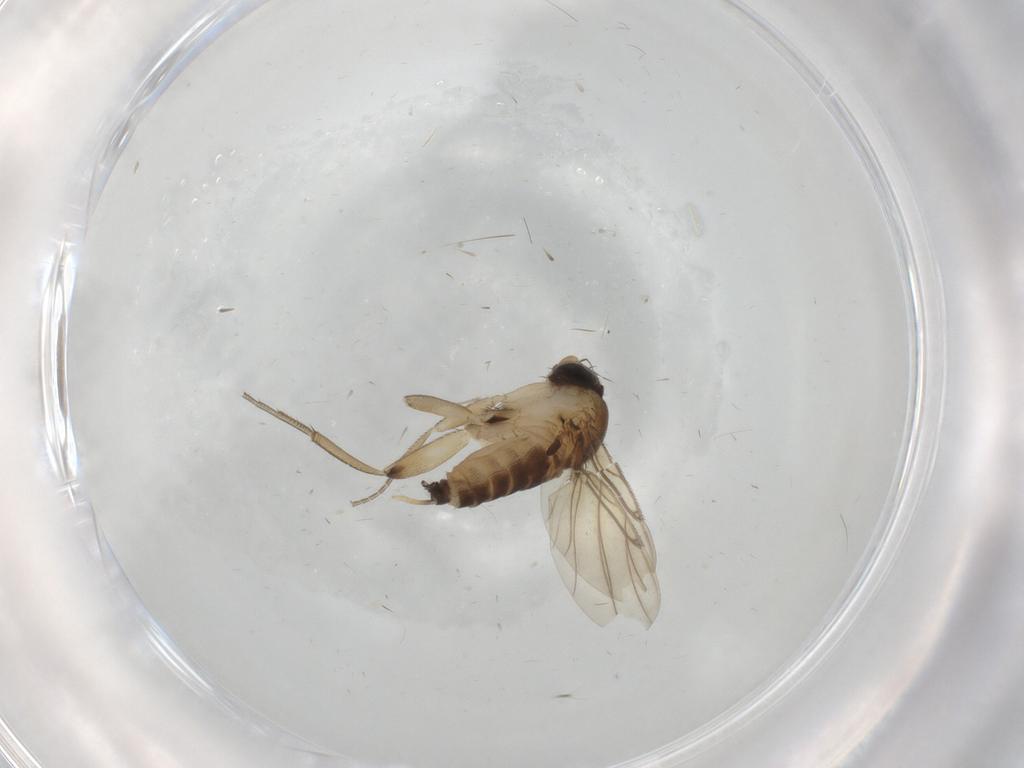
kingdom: Animalia
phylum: Arthropoda
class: Insecta
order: Diptera
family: Phoridae
